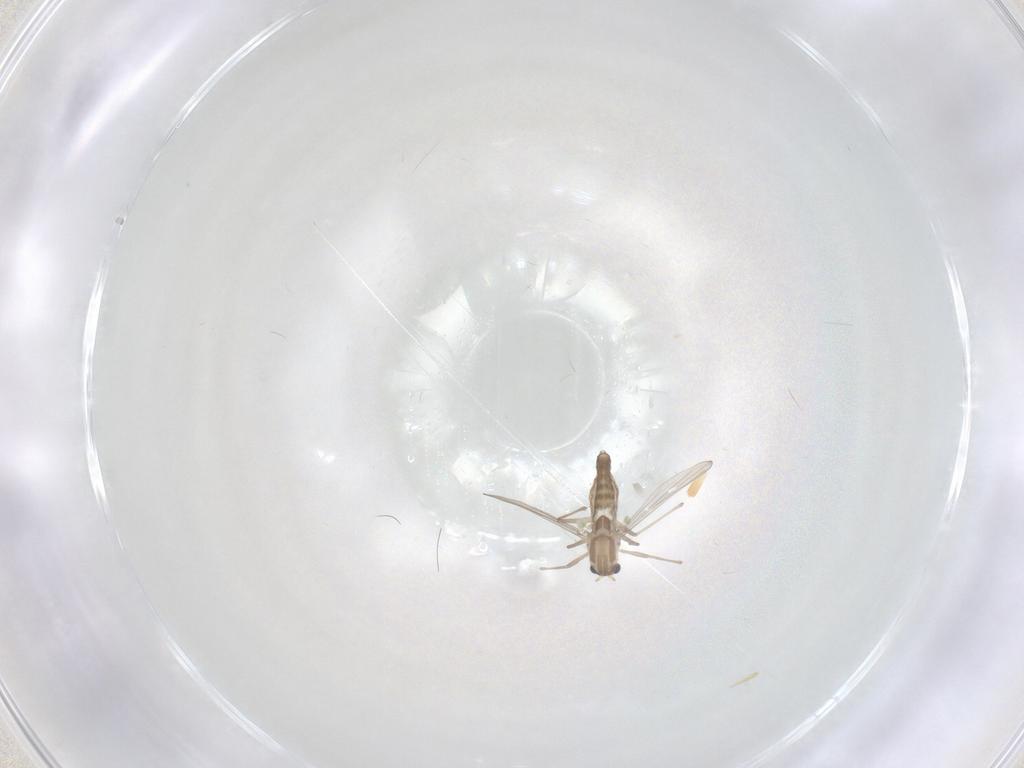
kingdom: Animalia
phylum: Arthropoda
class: Insecta
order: Diptera
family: Chironomidae
